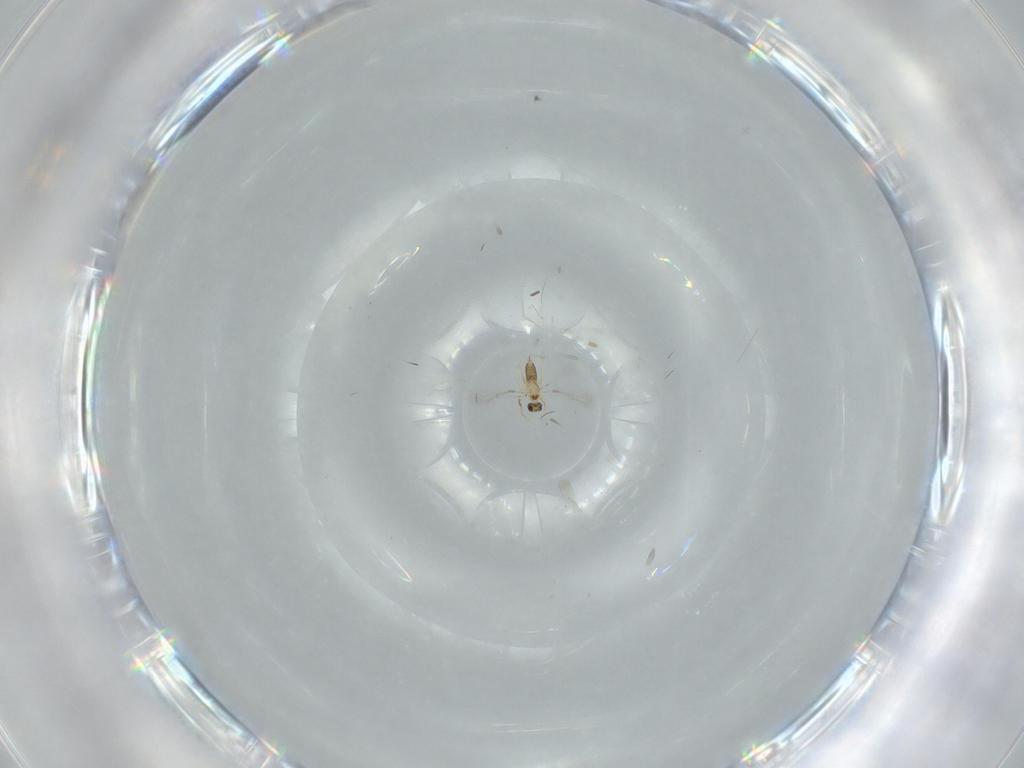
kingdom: Animalia
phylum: Arthropoda
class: Insecta
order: Hymenoptera
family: Mymaridae
